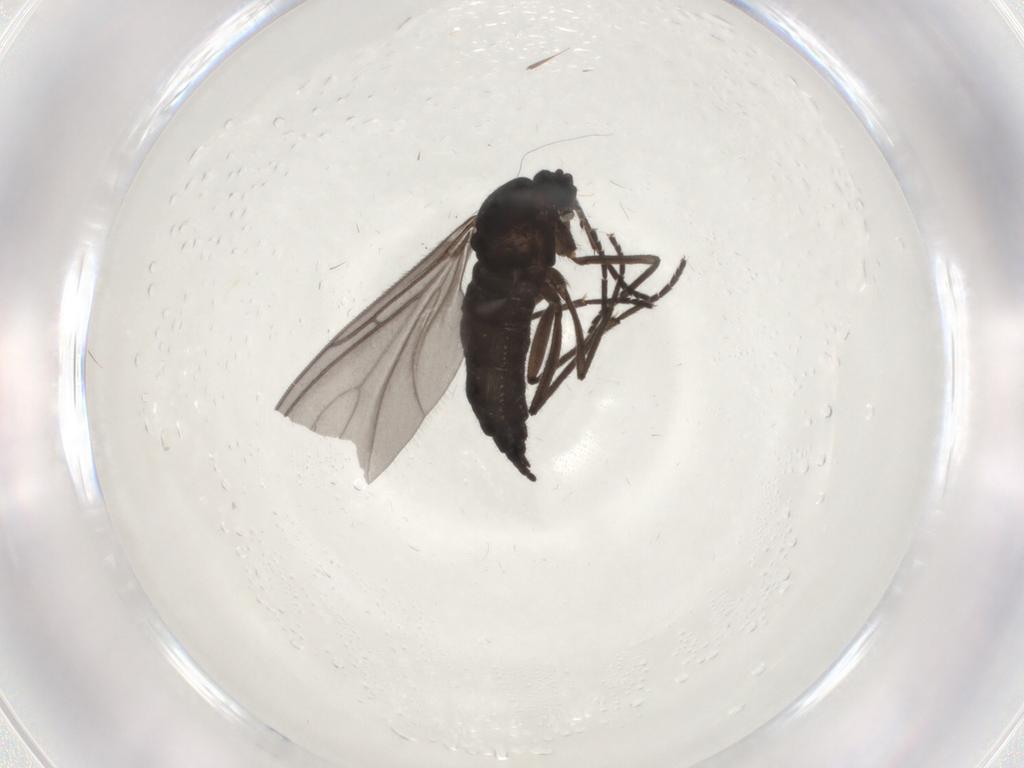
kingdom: Animalia
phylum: Arthropoda
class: Insecta
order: Diptera
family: Sciaridae
